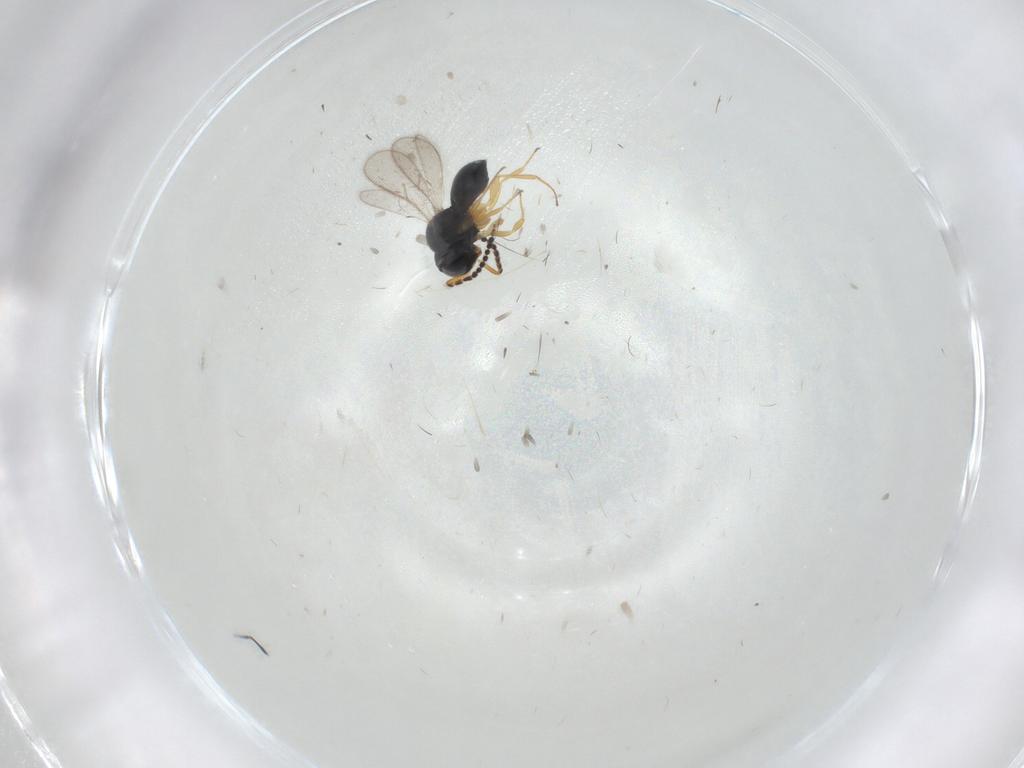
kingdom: Animalia
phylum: Arthropoda
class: Insecta
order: Hymenoptera
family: Scelionidae
